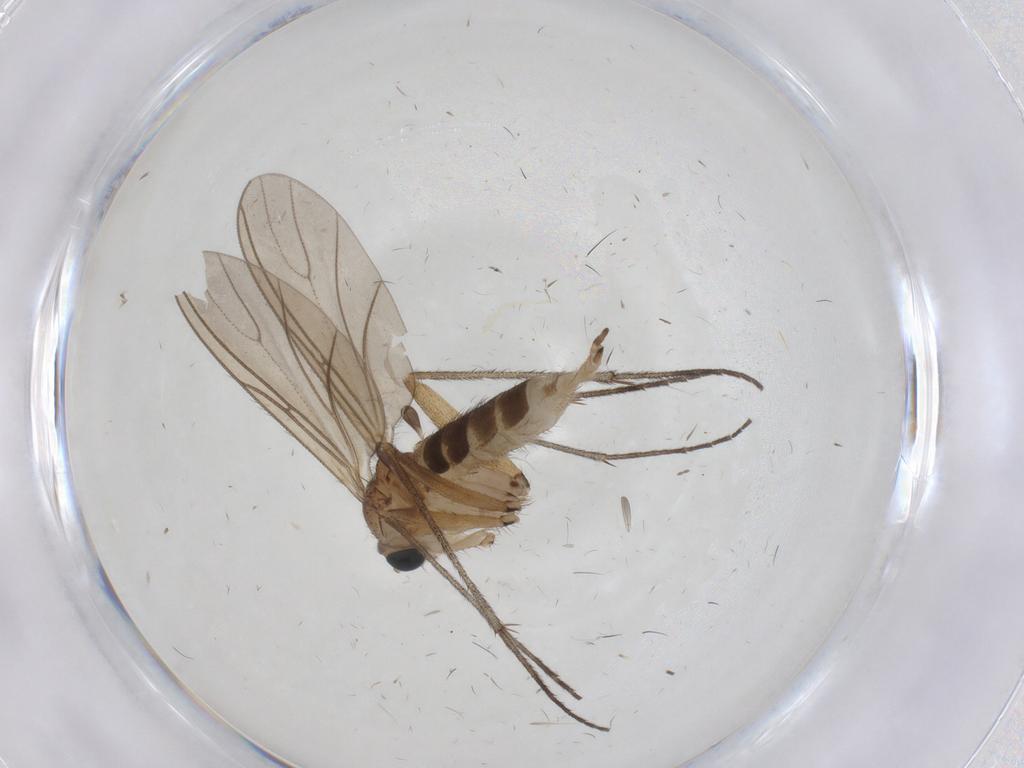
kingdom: Animalia
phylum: Arthropoda
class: Insecta
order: Diptera
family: Sciaridae
